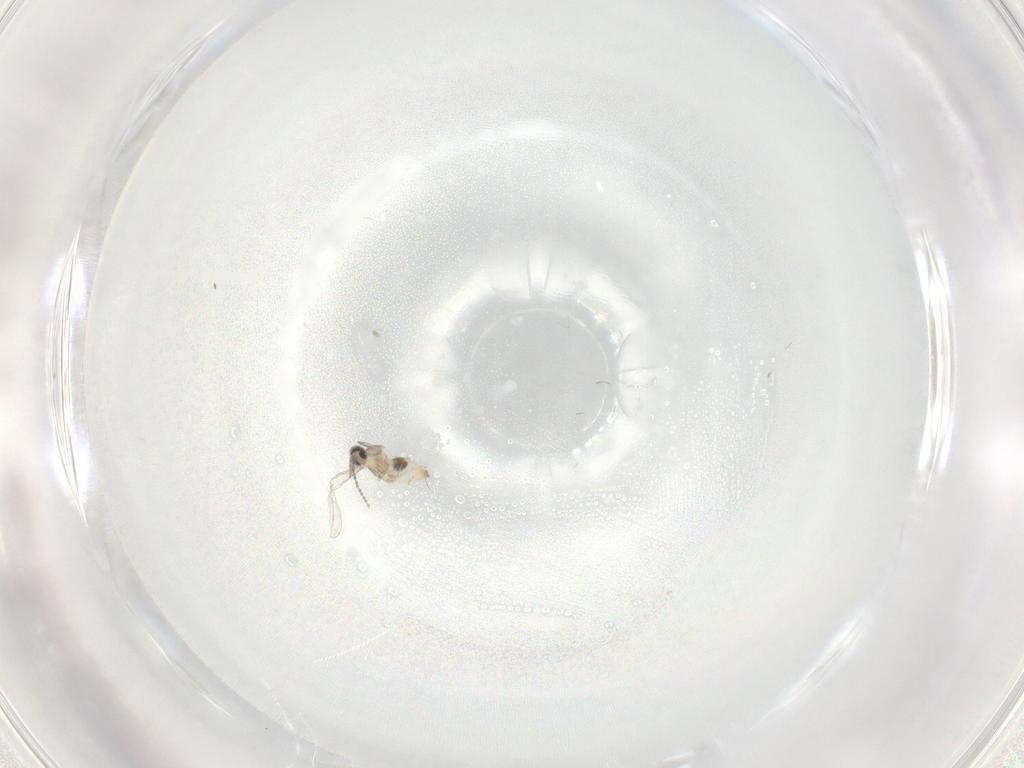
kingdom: Animalia
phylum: Arthropoda
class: Insecta
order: Diptera
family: Cecidomyiidae
